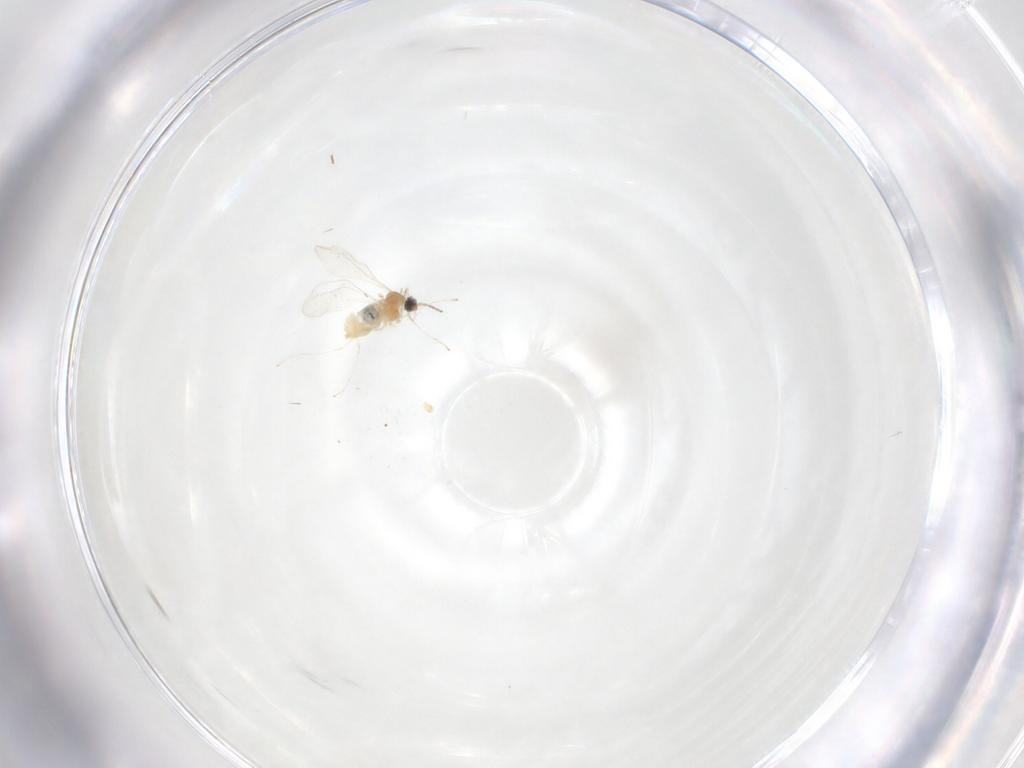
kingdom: Animalia
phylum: Arthropoda
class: Insecta
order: Diptera
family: Cecidomyiidae
